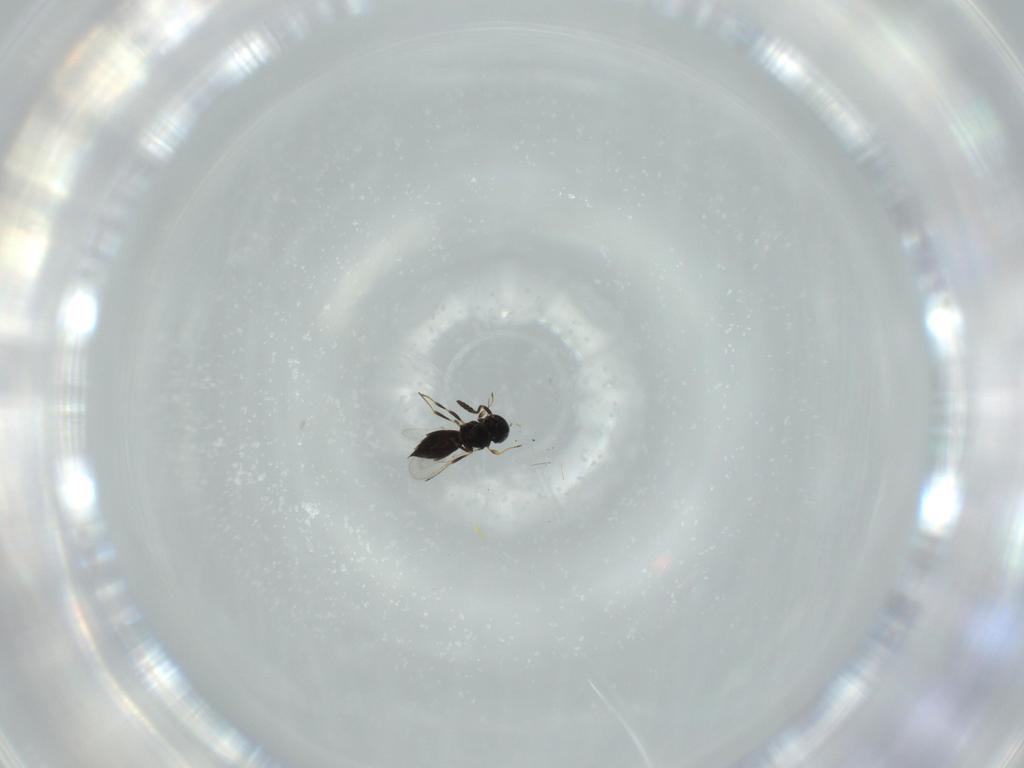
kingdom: Animalia
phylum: Arthropoda
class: Insecta
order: Hymenoptera
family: Scelionidae
